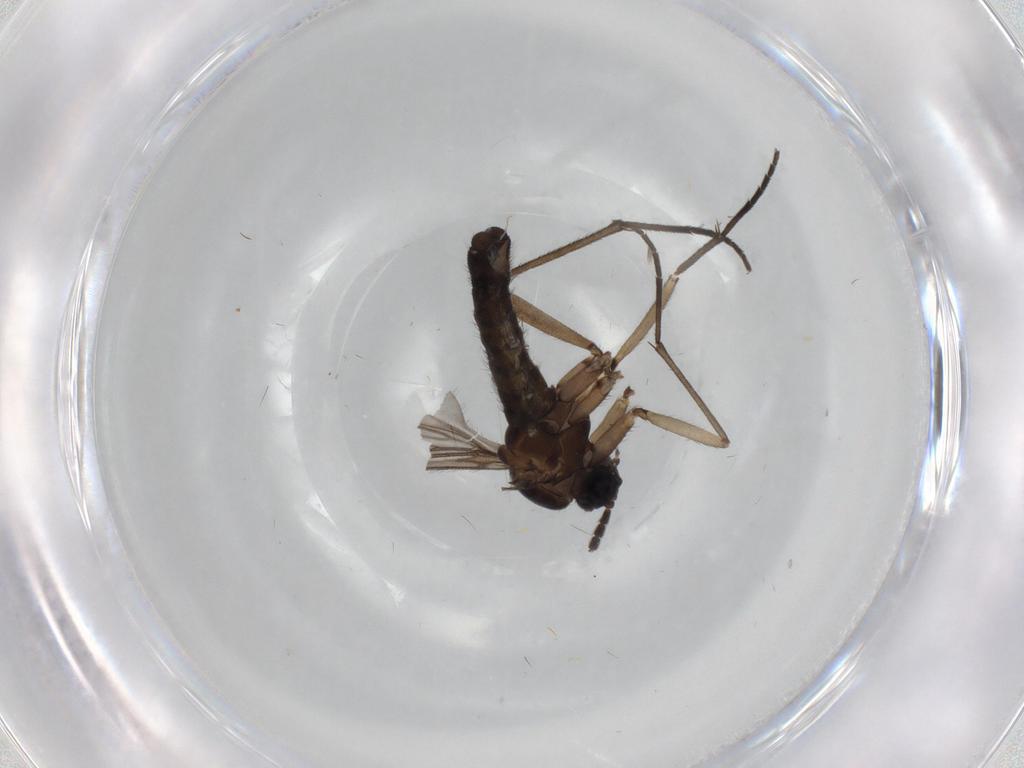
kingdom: Animalia
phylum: Arthropoda
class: Insecta
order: Diptera
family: Sciaridae
